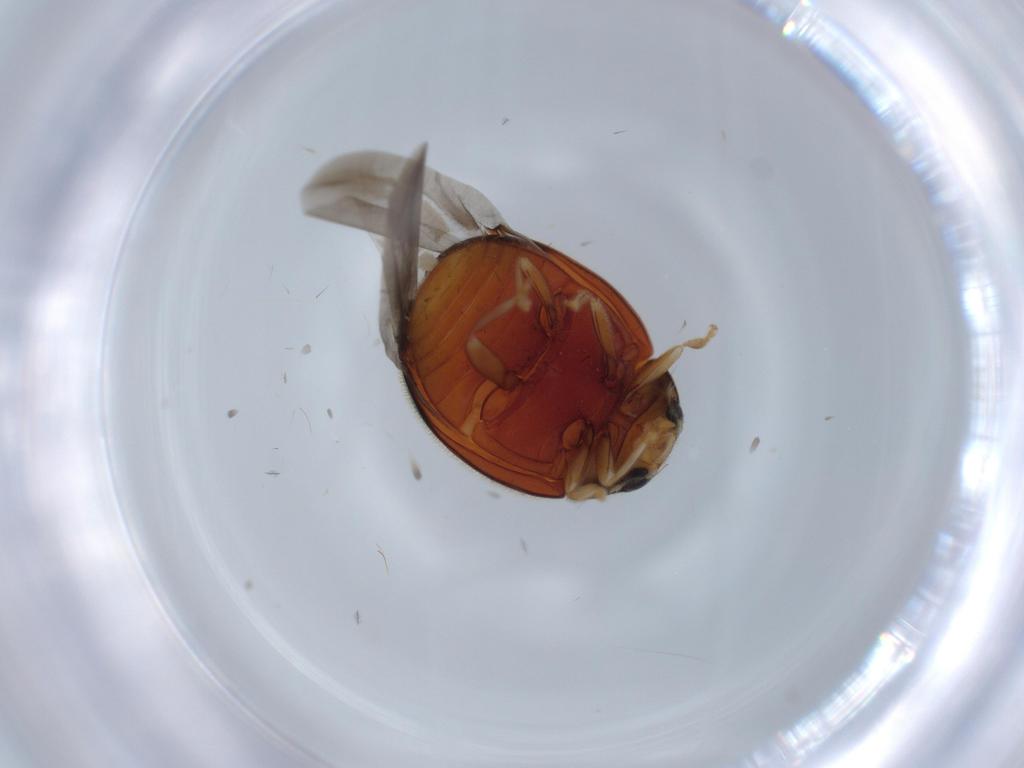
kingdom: Animalia
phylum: Arthropoda
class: Insecta
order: Coleoptera
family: Coccinellidae
